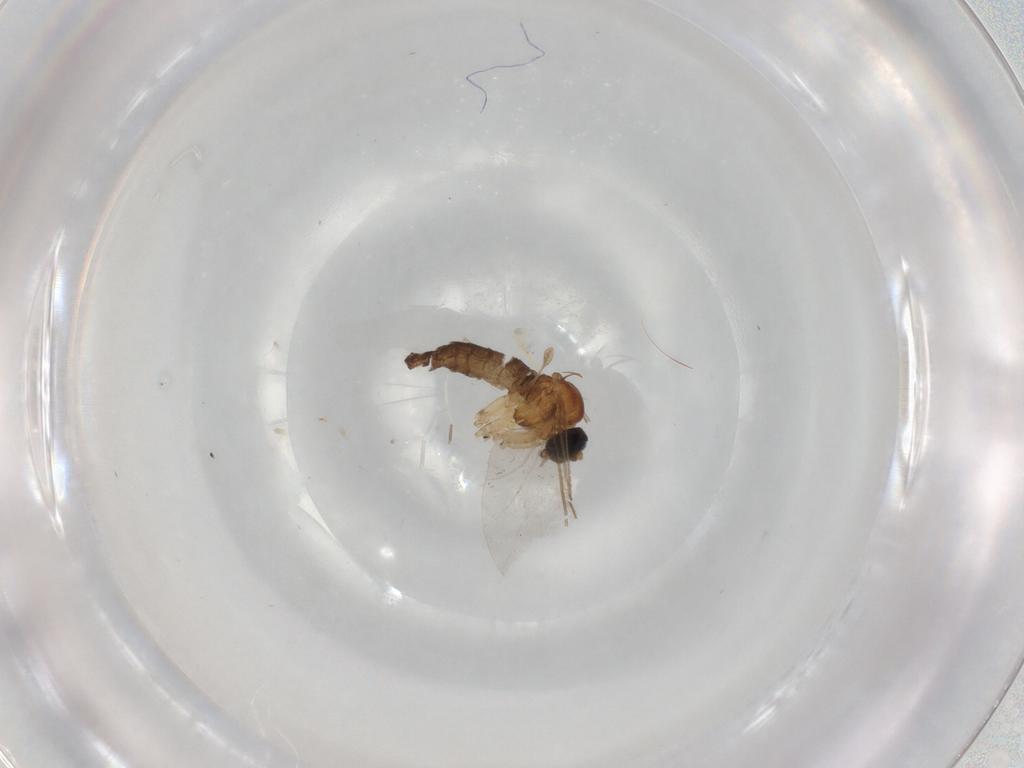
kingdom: Animalia
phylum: Arthropoda
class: Insecta
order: Diptera
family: Sciaridae
